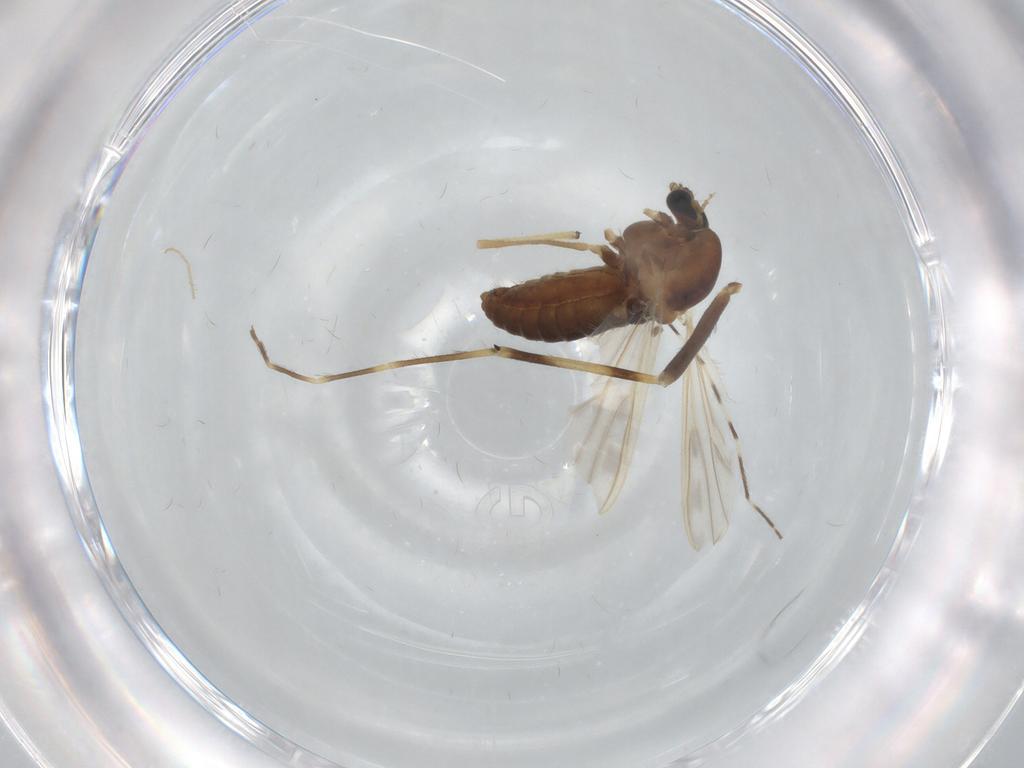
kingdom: Animalia
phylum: Arthropoda
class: Insecta
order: Diptera
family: Chironomidae
